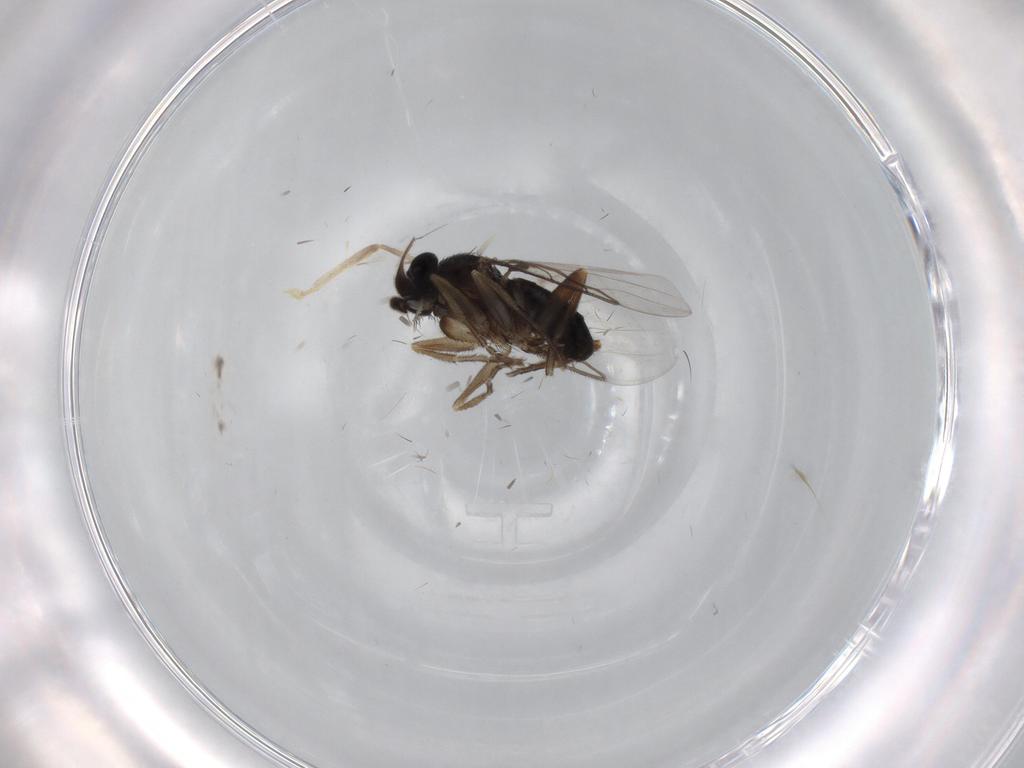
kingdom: Animalia
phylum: Arthropoda
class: Insecta
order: Diptera
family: Phoridae
